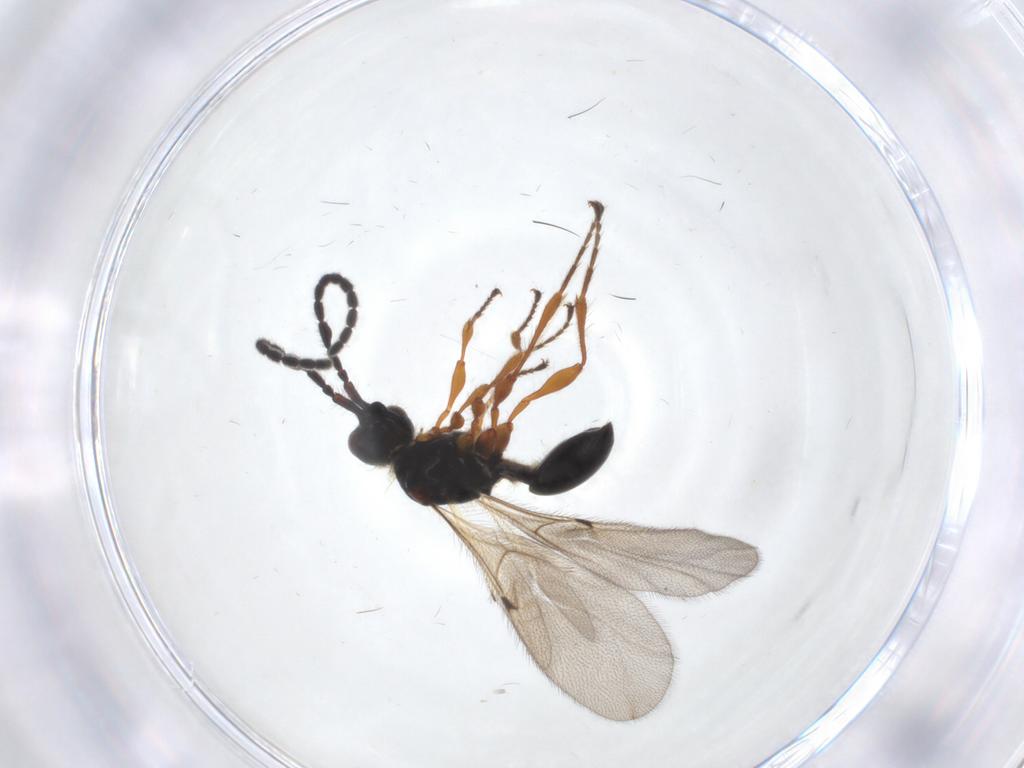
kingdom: Animalia
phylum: Arthropoda
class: Insecta
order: Hymenoptera
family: Diapriidae
